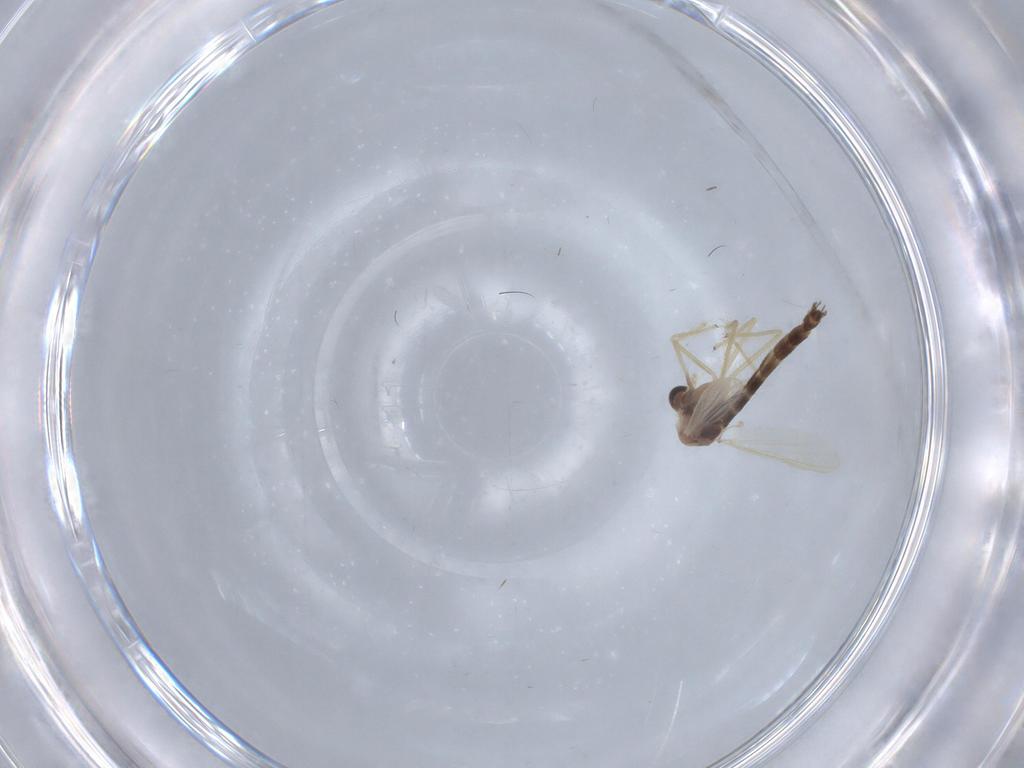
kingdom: Animalia
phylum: Arthropoda
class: Insecta
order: Diptera
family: Chironomidae
